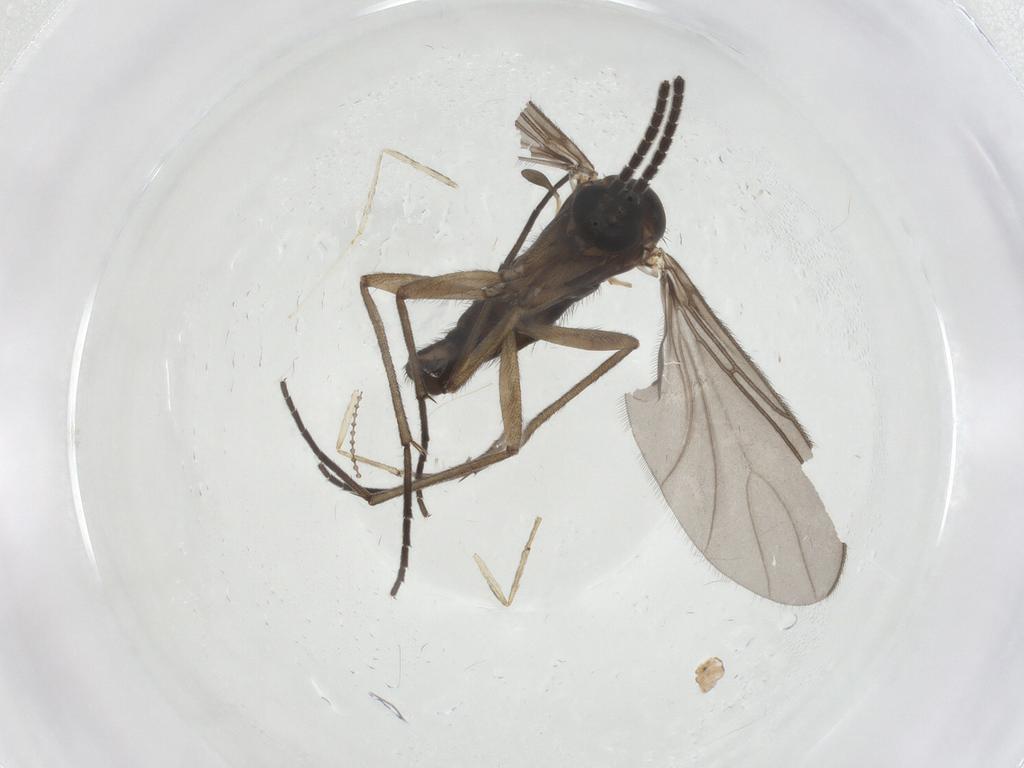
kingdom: Animalia
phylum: Arthropoda
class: Insecta
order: Diptera
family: Sciaridae
